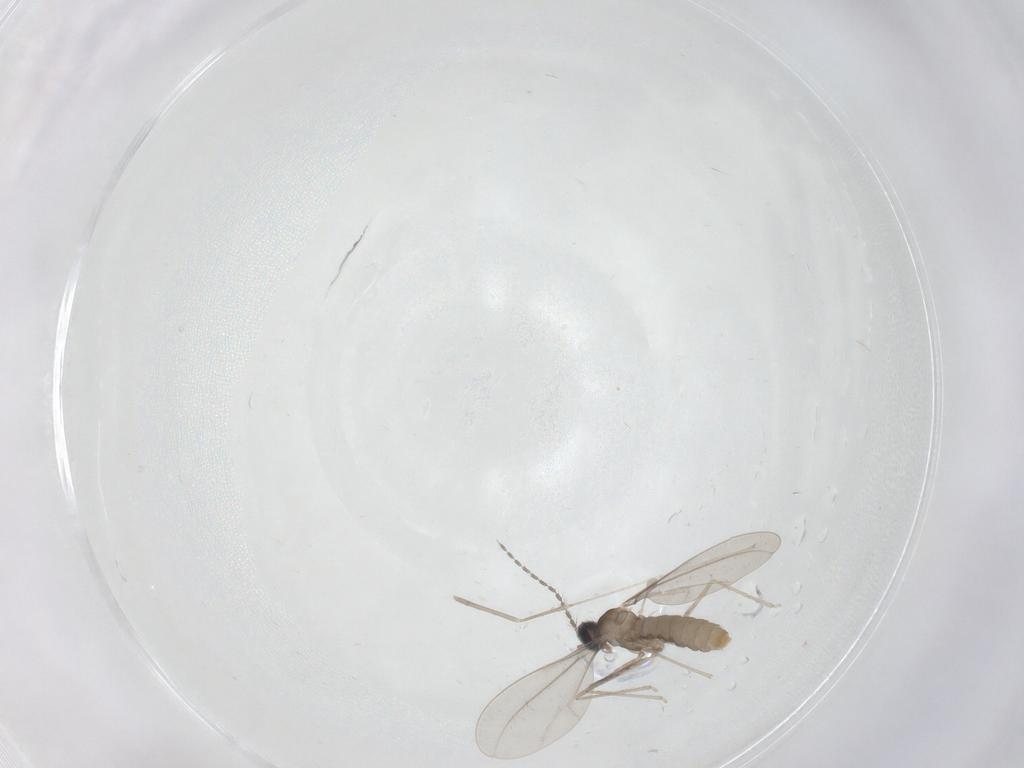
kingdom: Animalia
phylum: Arthropoda
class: Insecta
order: Diptera
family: Cecidomyiidae
